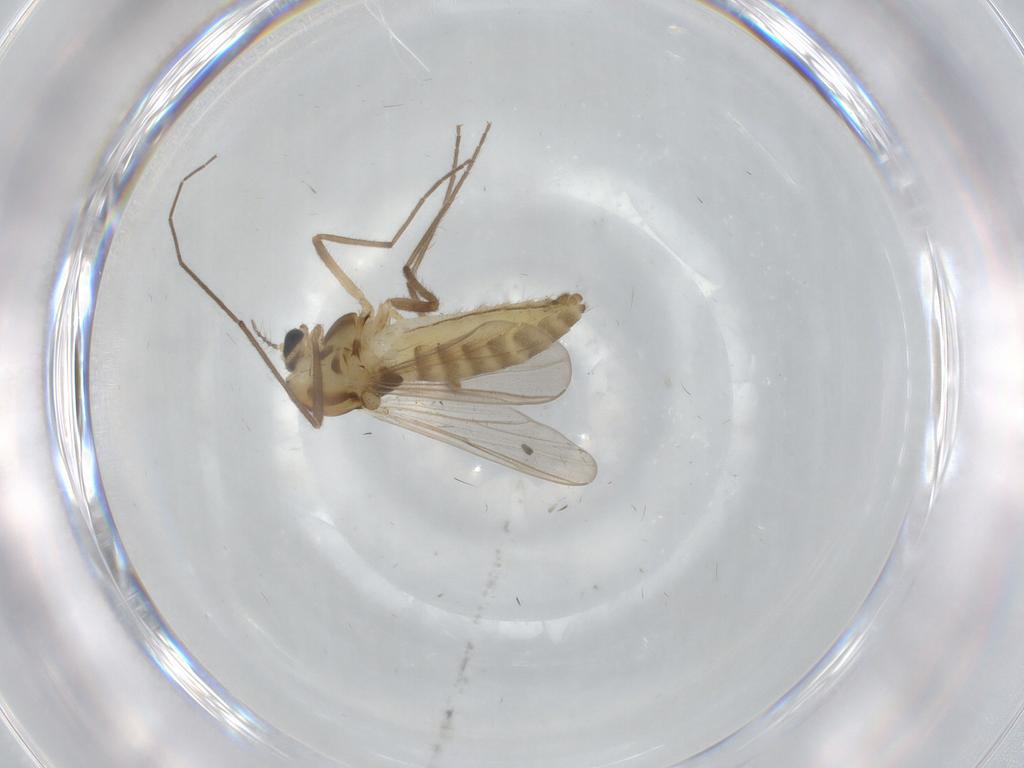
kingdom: Animalia
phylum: Arthropoda
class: Insecta
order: Diptera
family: Chironomidae
